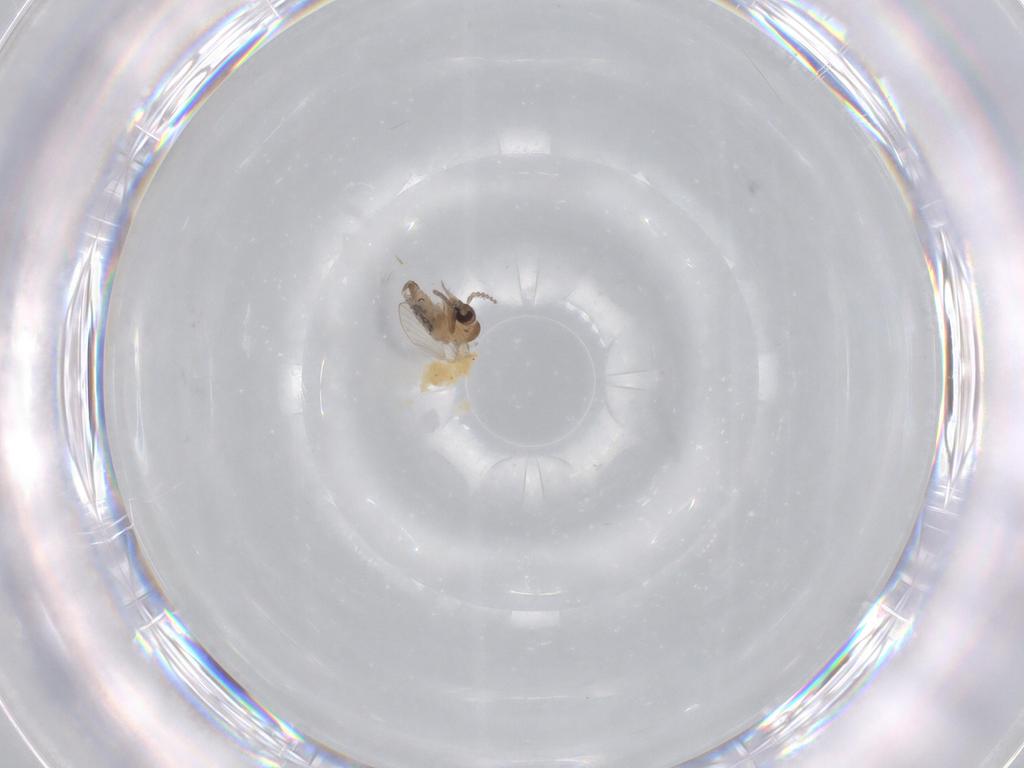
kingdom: Animalia
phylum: Arthropoda
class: Insecta
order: Diptera
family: Psychodidae
